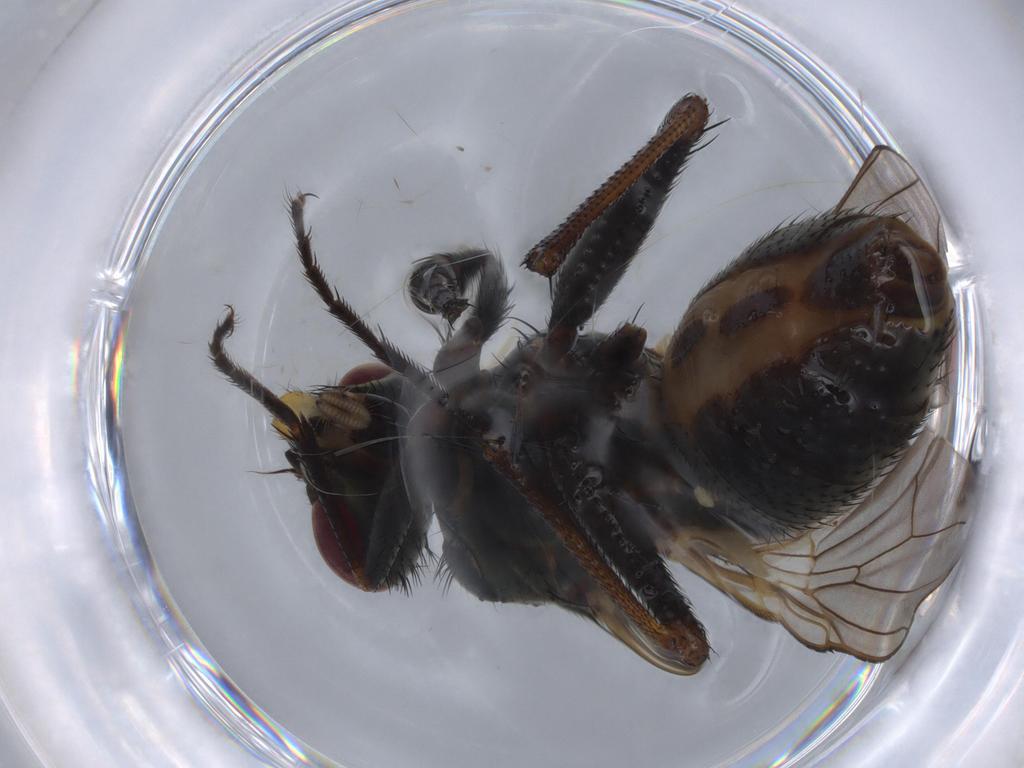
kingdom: Animalia
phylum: Arthropoda
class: Insecta
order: Diptera
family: Ceratopogonidae
